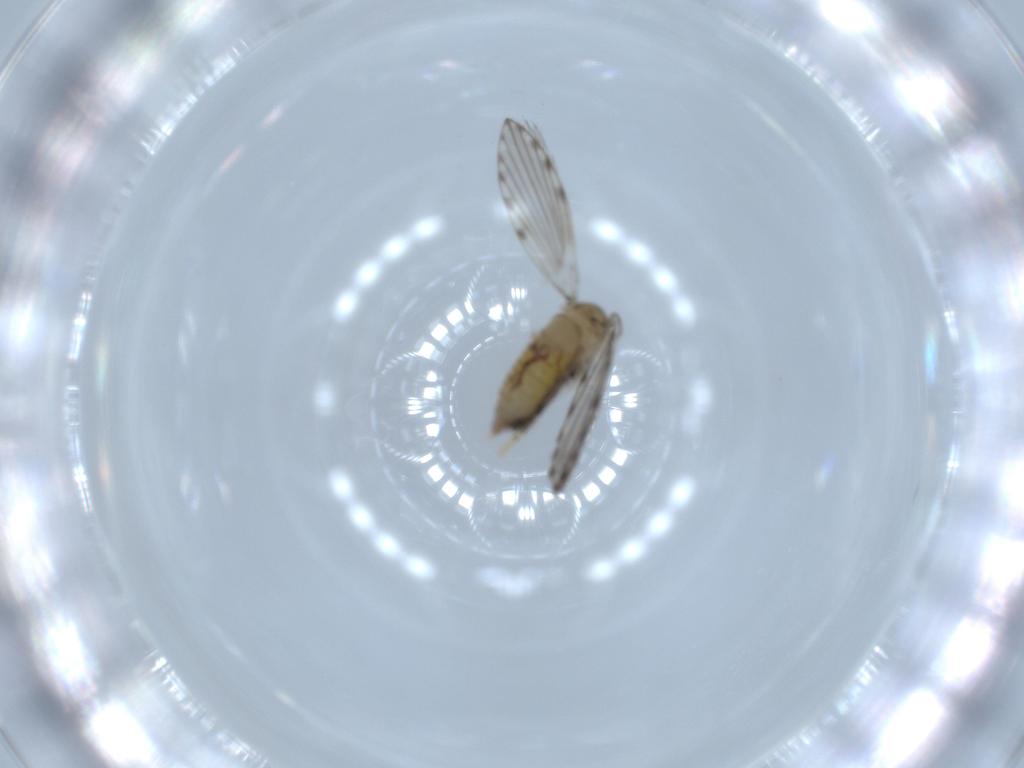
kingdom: Animalia
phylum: Arthropoda
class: Insecta
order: Diptera
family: Psychodidae
